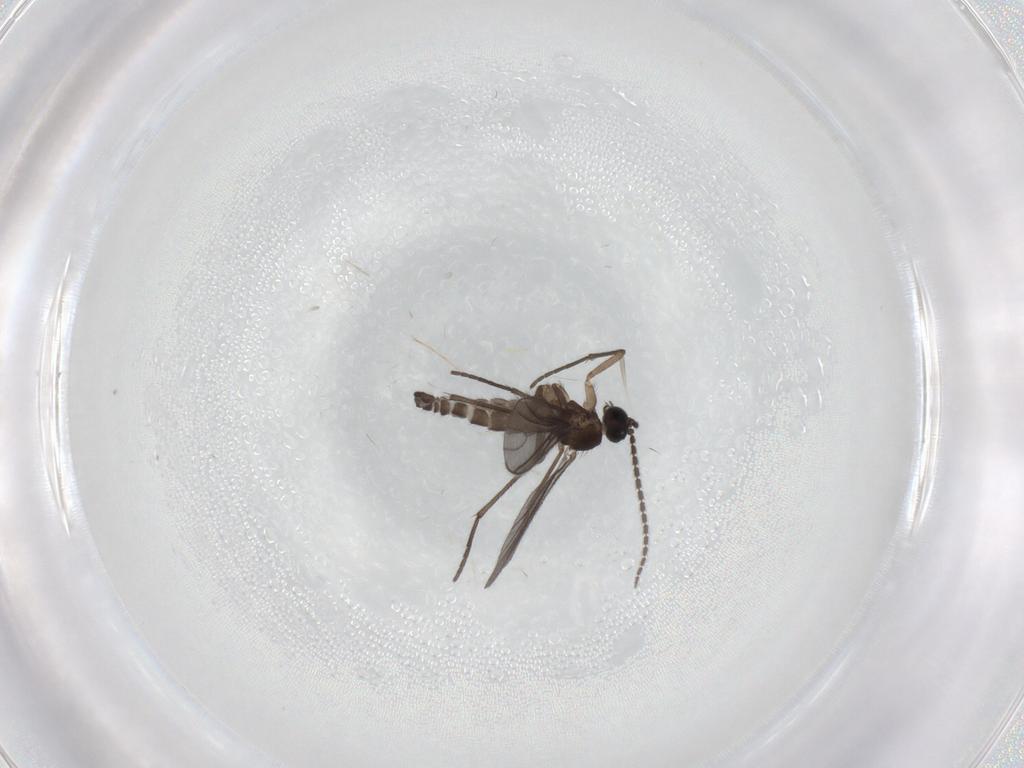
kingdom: Animalia
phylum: Arthropoda
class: Insecta
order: Diptera
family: Sciaridae
